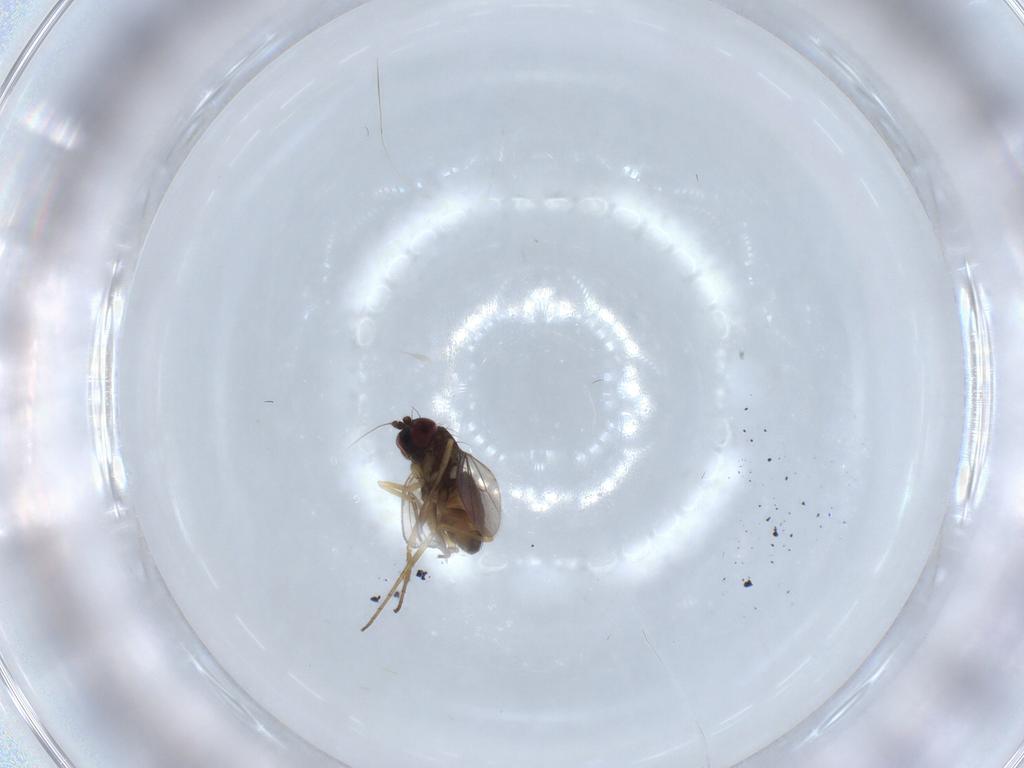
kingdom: Animalia
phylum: Arthropoda
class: Insecta
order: Diptera
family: Dolichopodidae
